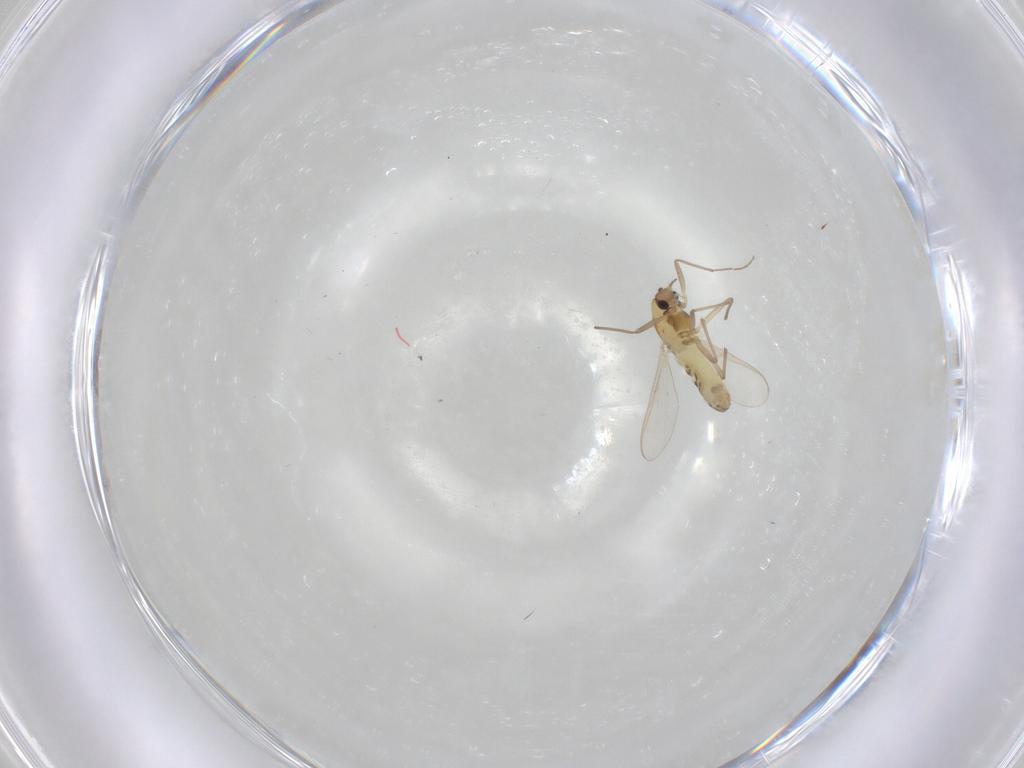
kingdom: Animalia
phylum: Arthropoda
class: Insecta
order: Diptera
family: Chironomidae
